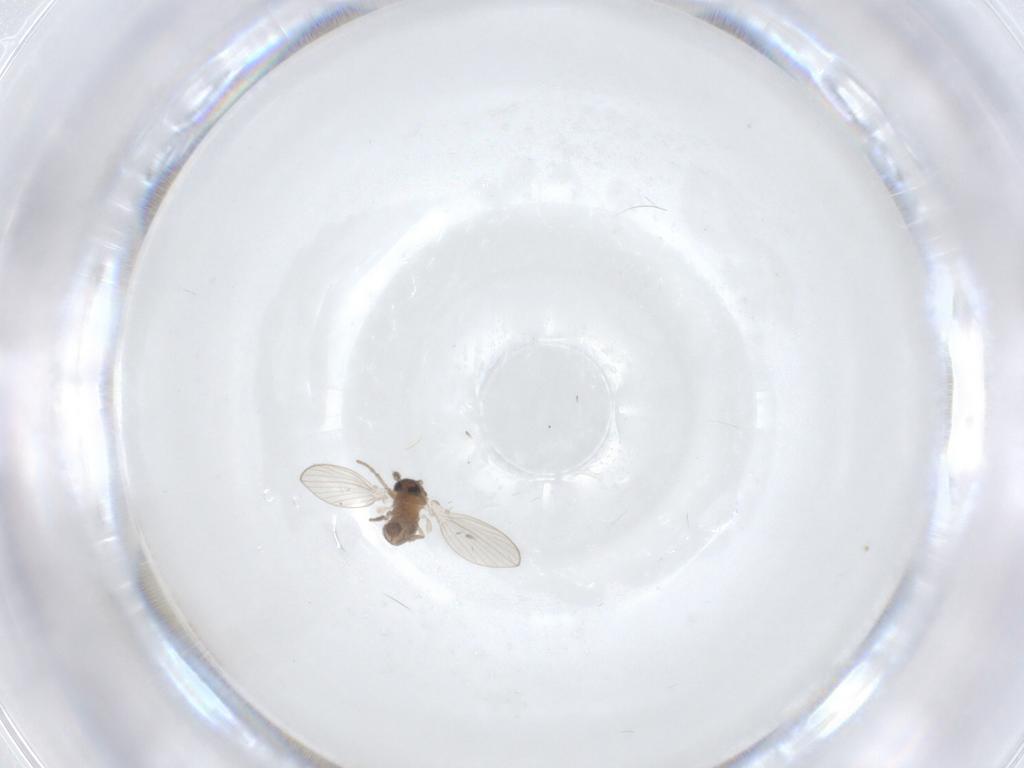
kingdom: Animalia
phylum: Arthropoda
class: Insecta
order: Diptera
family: Psychodidae
